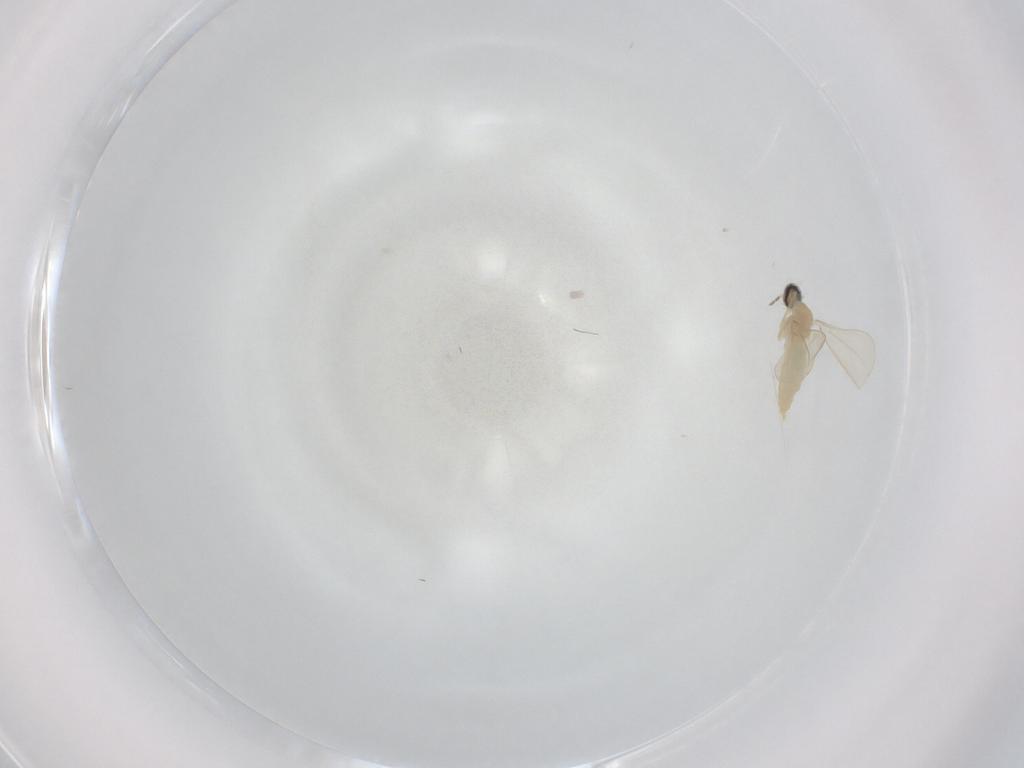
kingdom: Animalia
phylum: Arthropoda
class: Insecta
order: Diptera
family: Cecidomyiidae
